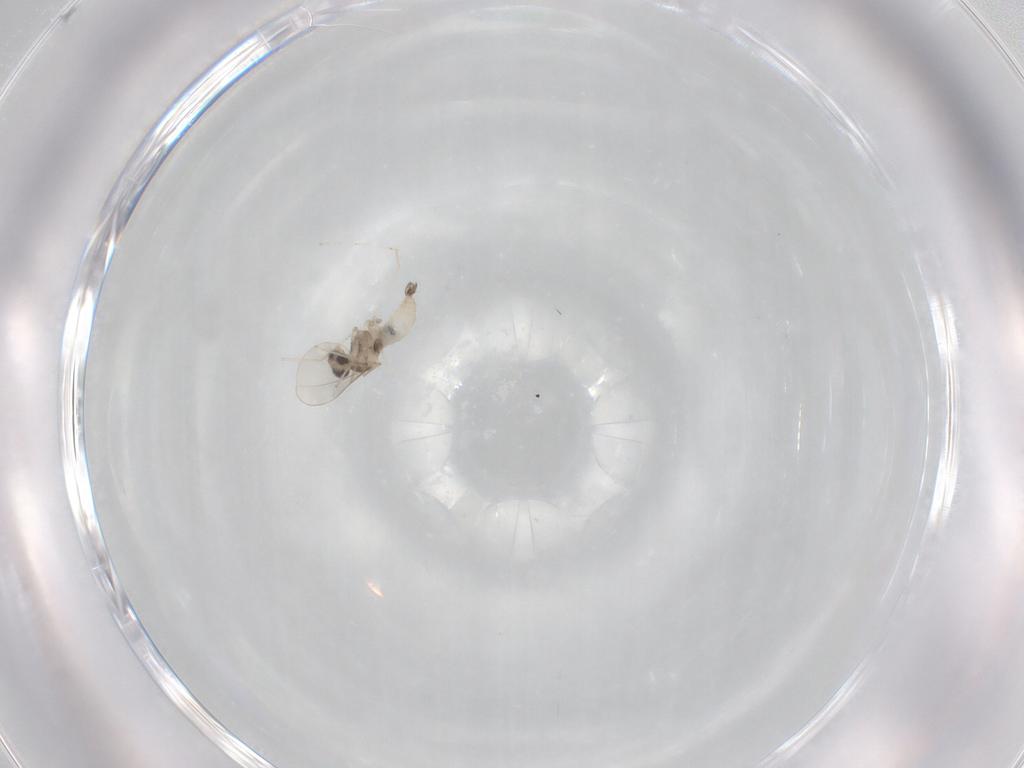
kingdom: Animalia
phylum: Arthropoda
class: Insecta
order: Diptera
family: Cecidomyiidae
